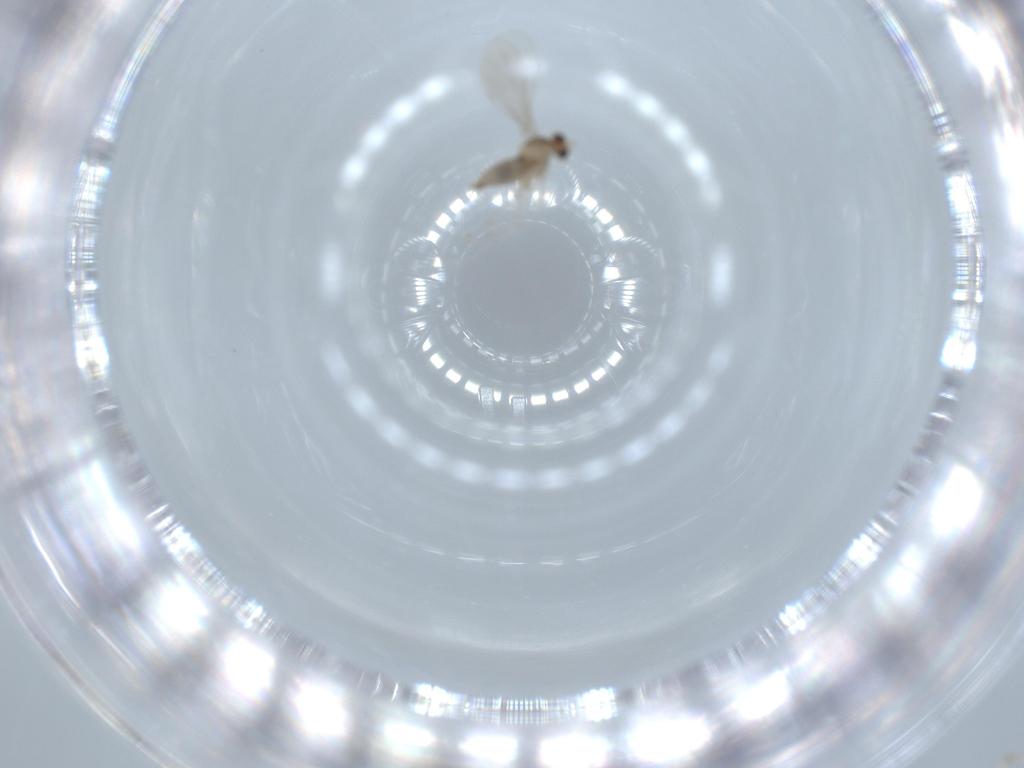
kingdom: Animalia
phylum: Arthropoda
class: Insecta
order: Diptera
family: Cecidomyiidae
